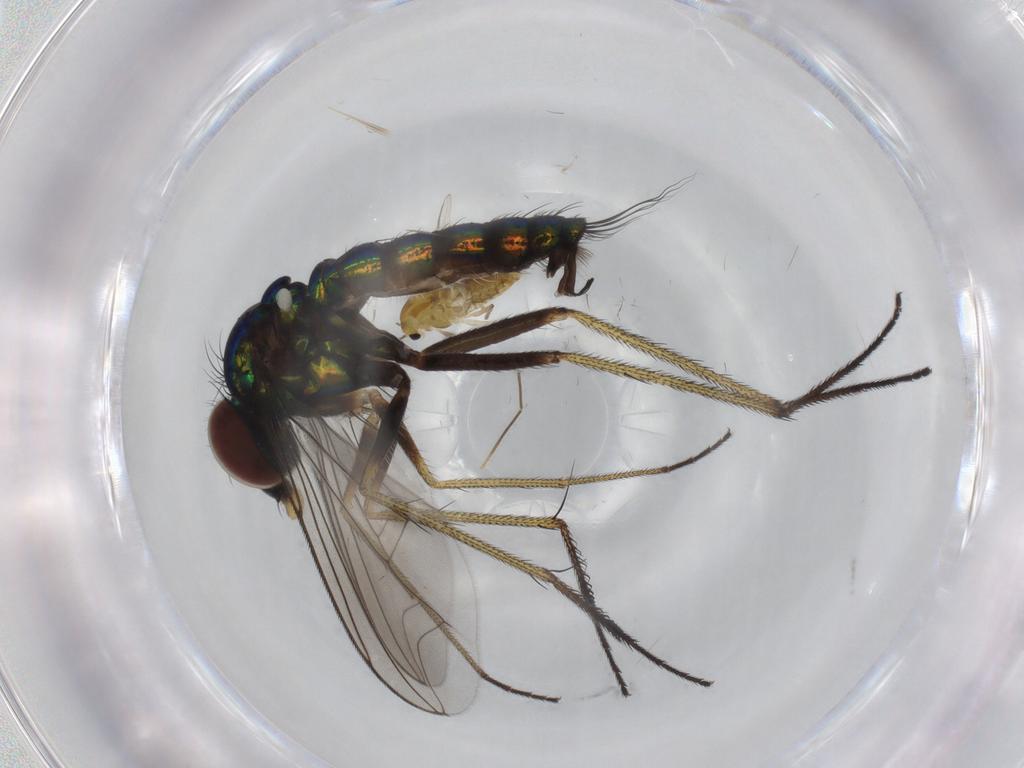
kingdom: Animalia
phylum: Arthropoda
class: Insecta
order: Diptera
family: Dolichopodidae
